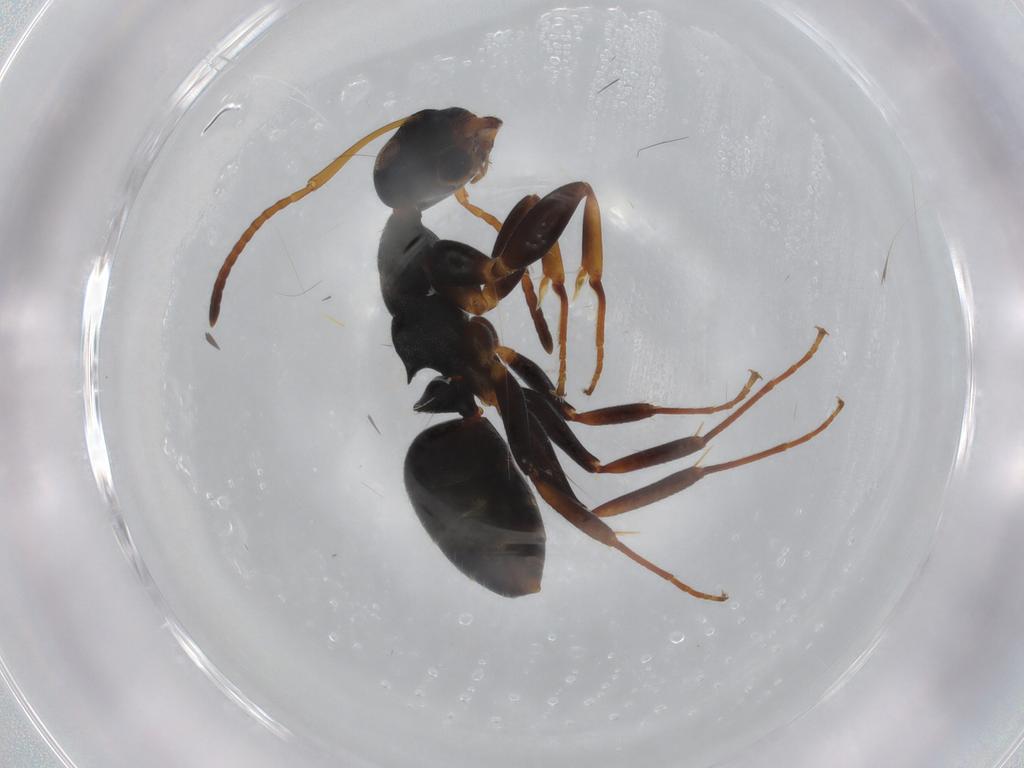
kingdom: Animalia
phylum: Arthropoda
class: Insecta
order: Hymenoptera
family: Formicidae
